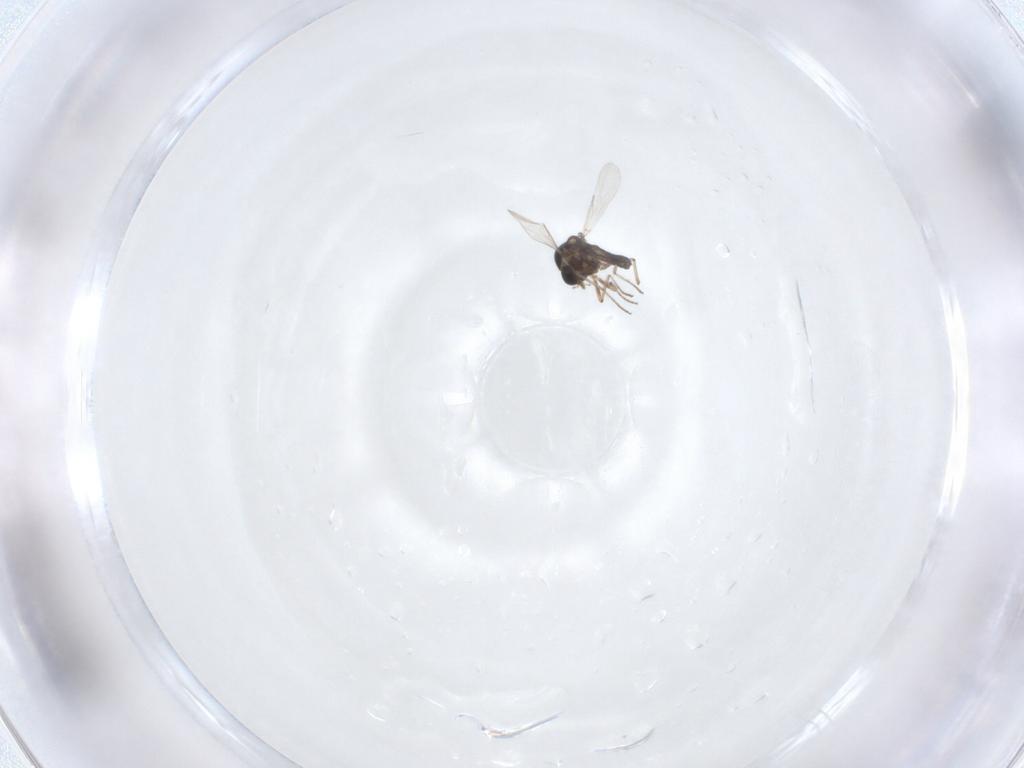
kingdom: Animalia
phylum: Arthropoda
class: Insecta
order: Diptera
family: Ceratopogonidae
